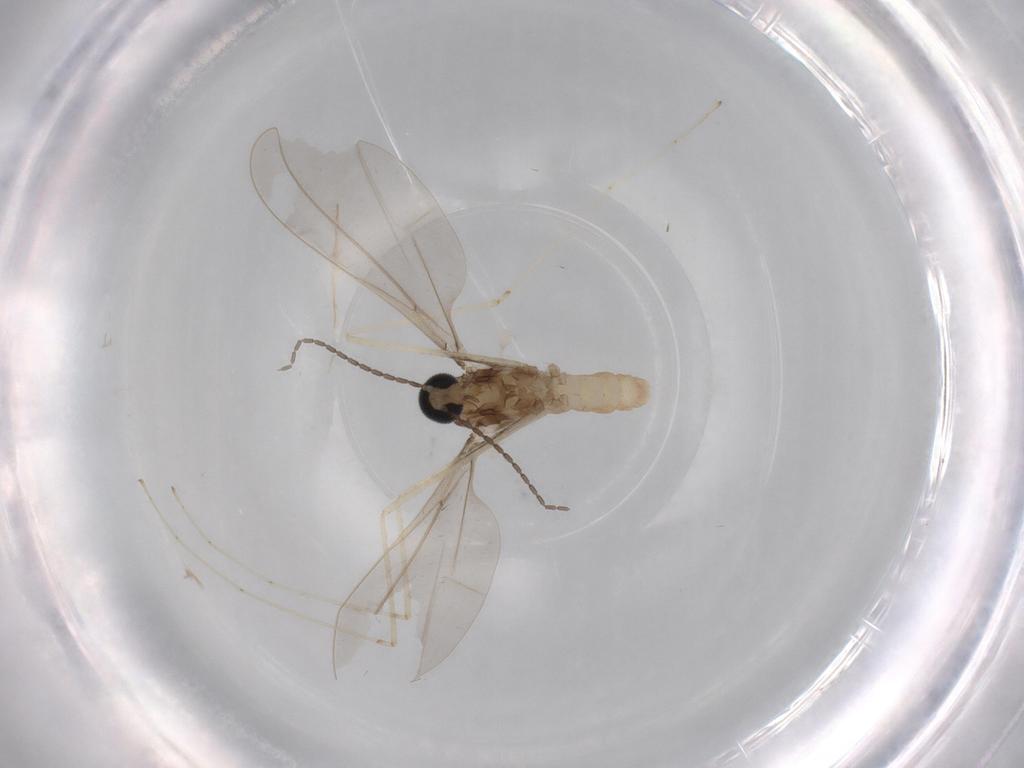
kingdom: Animalia
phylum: Arthropoda
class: Insecta
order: Diptera
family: Cecidomyiidae
